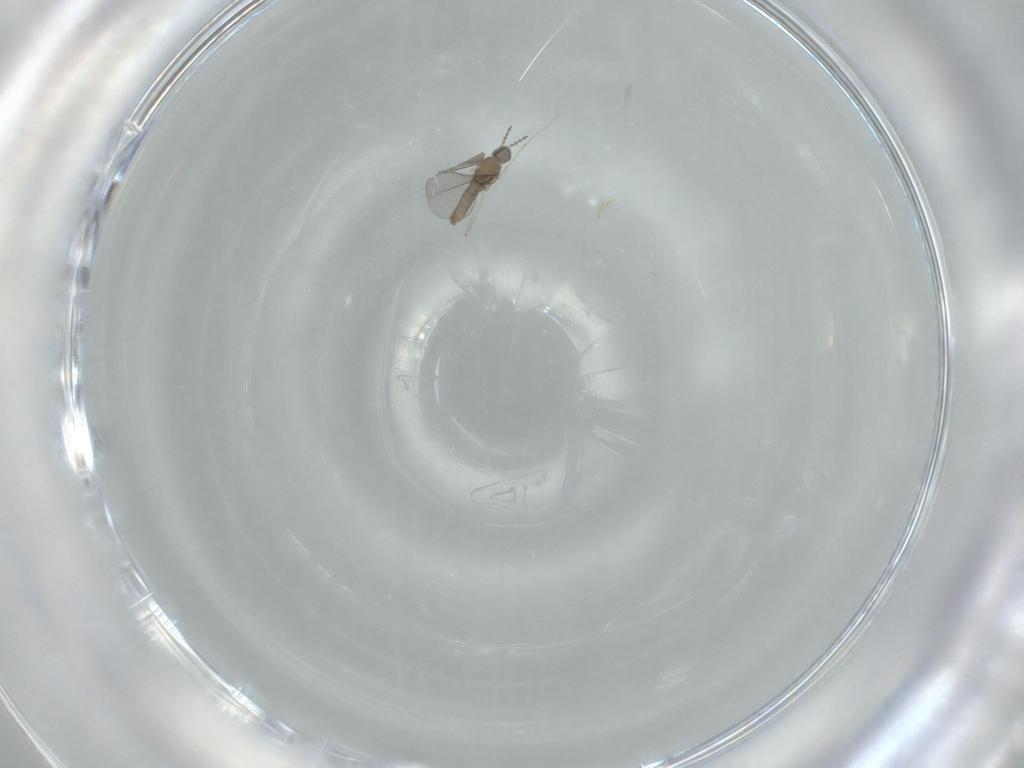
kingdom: Animalia
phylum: Arthropoda
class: Insecta
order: Diptera
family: Cecidomyiidae
